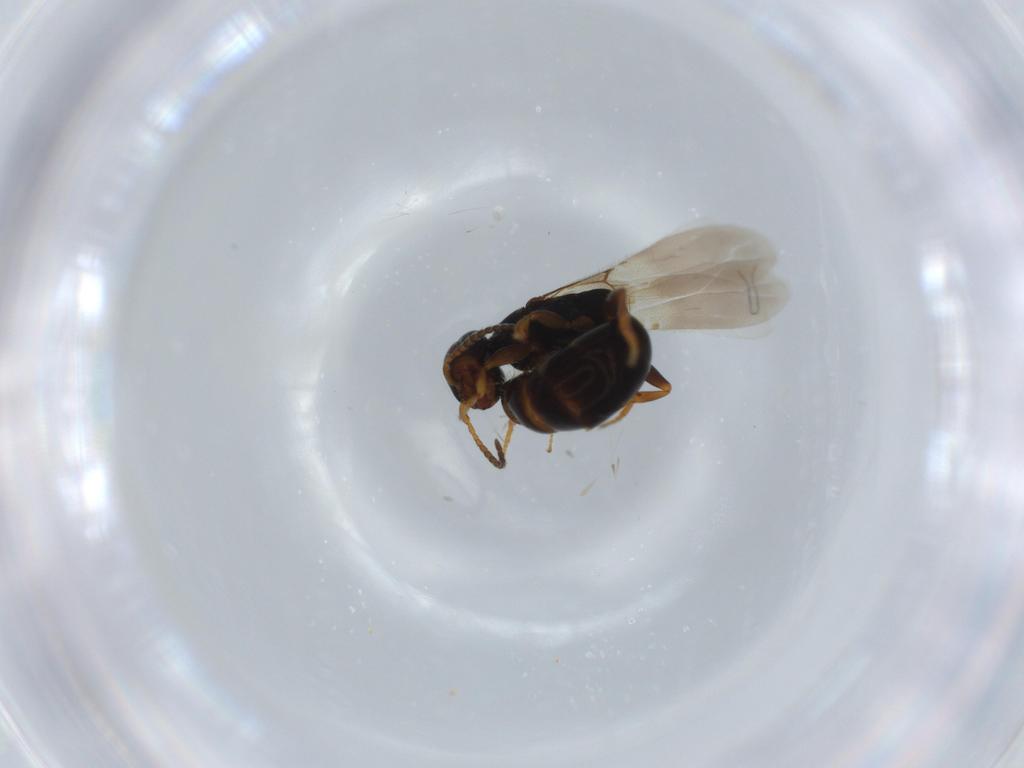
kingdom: Animalia
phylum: Arthropoda
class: Insecta
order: Hymenoptera
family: Bethylidae
